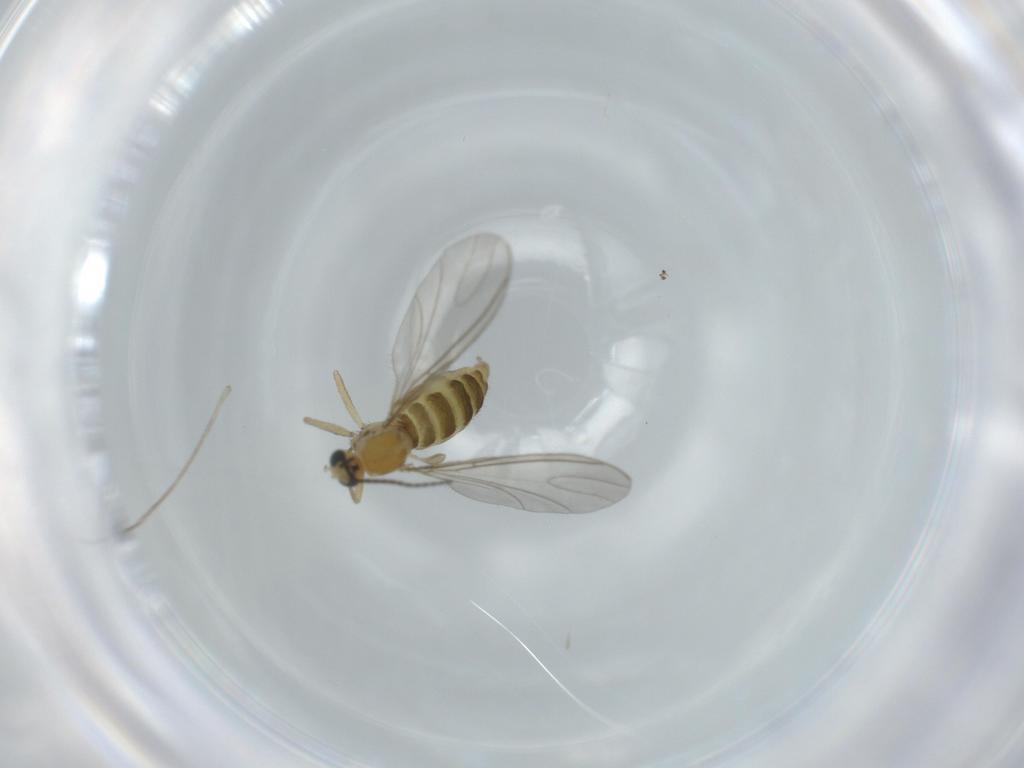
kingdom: Animalia
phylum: Arthropoda
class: Insecta
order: Diptera
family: Sciaridae
